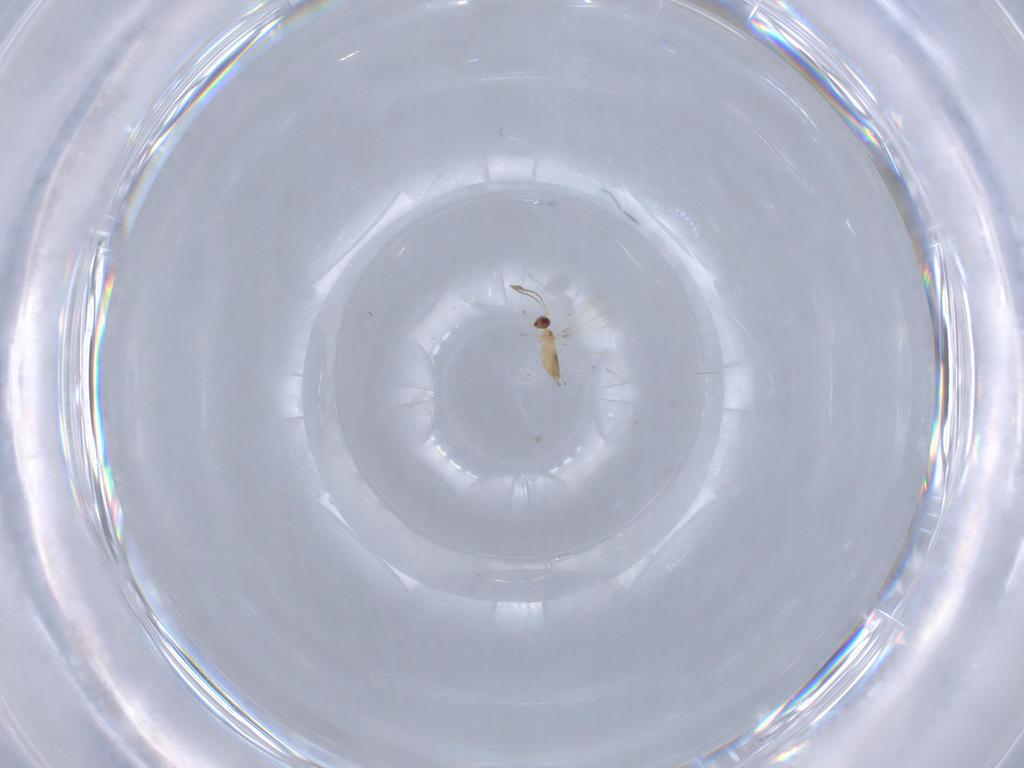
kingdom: Animalia
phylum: Arthropoda
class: Insecta
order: Hymenoptera
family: Mymaridae
